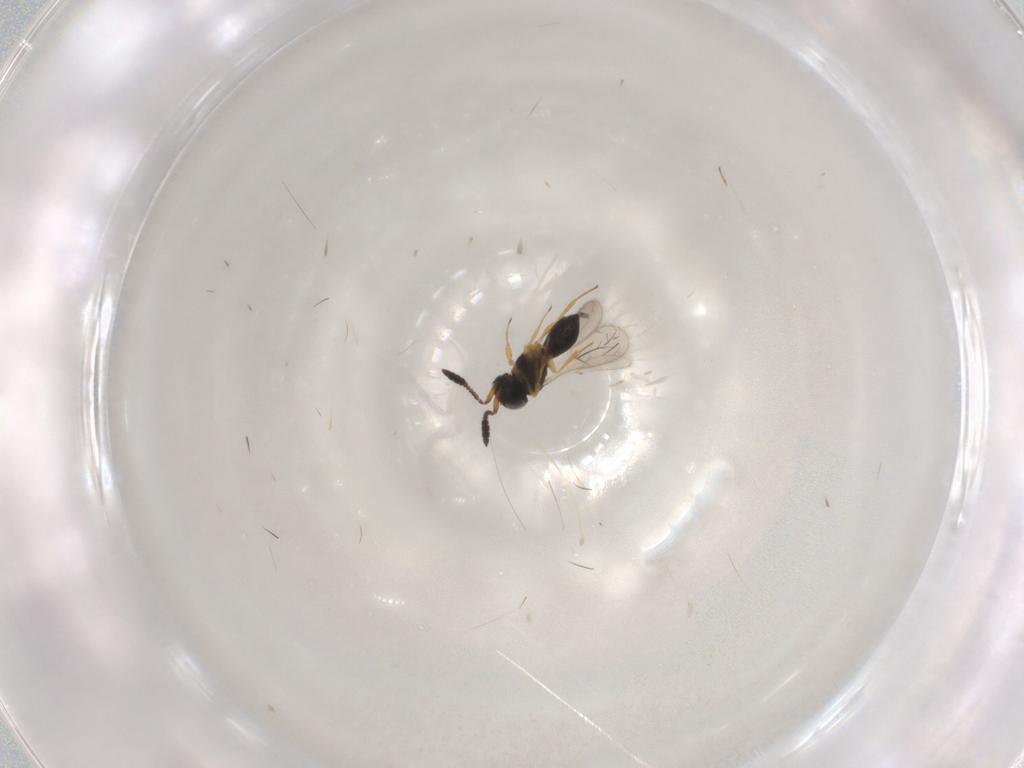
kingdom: Animalia
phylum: Arthropoda
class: Insecta
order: Hymenoptera
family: Scelionidae
